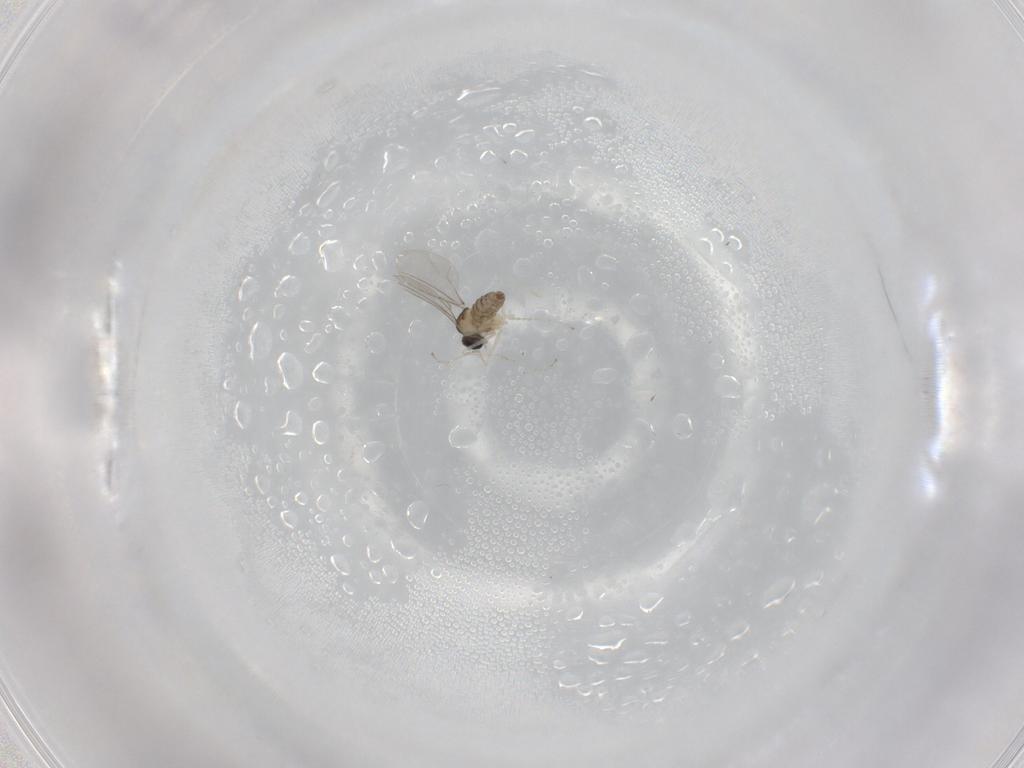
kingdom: Animalia
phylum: Arthropoda
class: Insecta
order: Diptera
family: Cecidomyiidae
